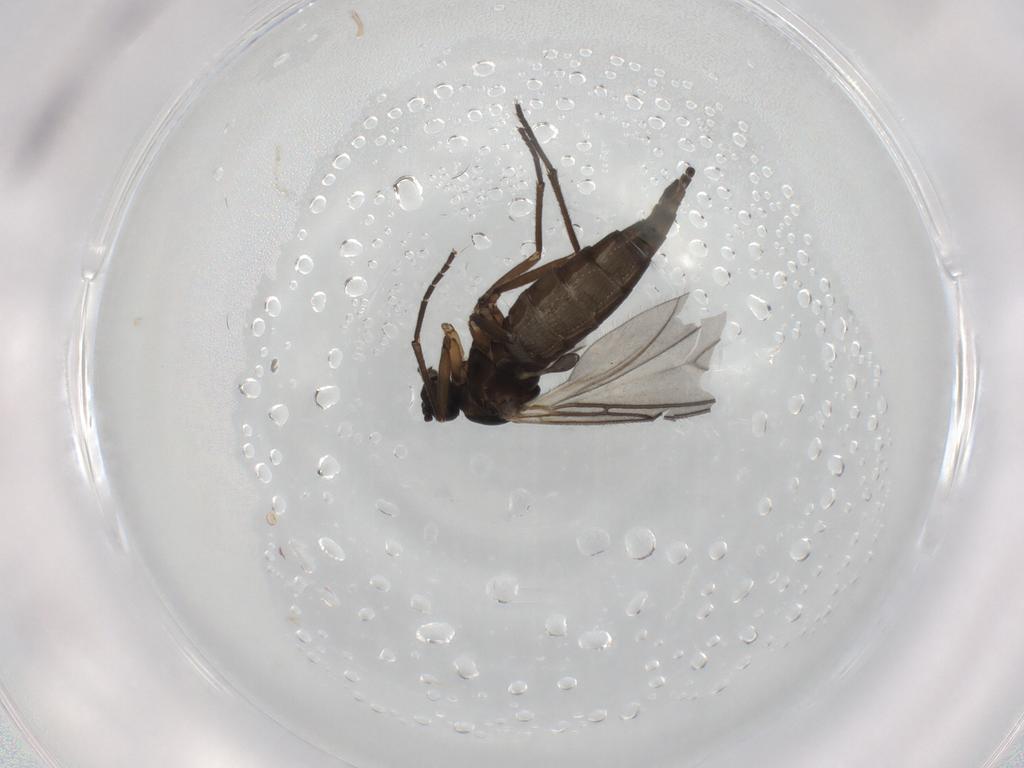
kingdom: Animalia
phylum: Arthropoda
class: Insecta
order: Diptera
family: Sciaridae
